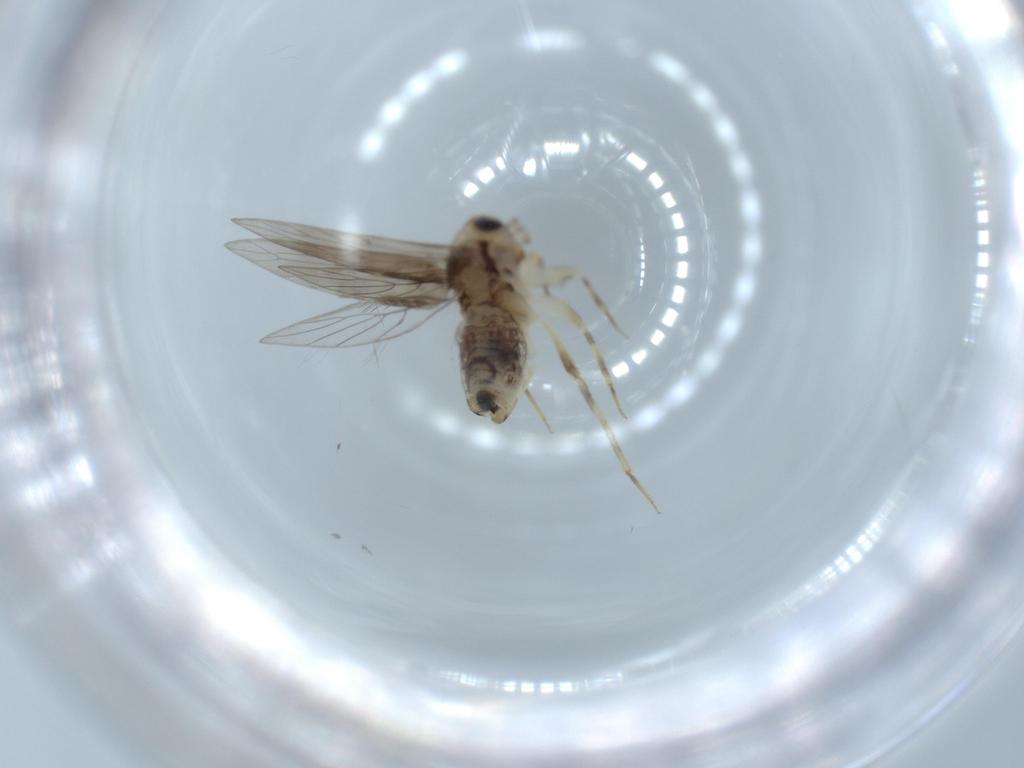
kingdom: Animalia
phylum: Arthropoda
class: Insecta
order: Psocodea
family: Lepidopsocidae
